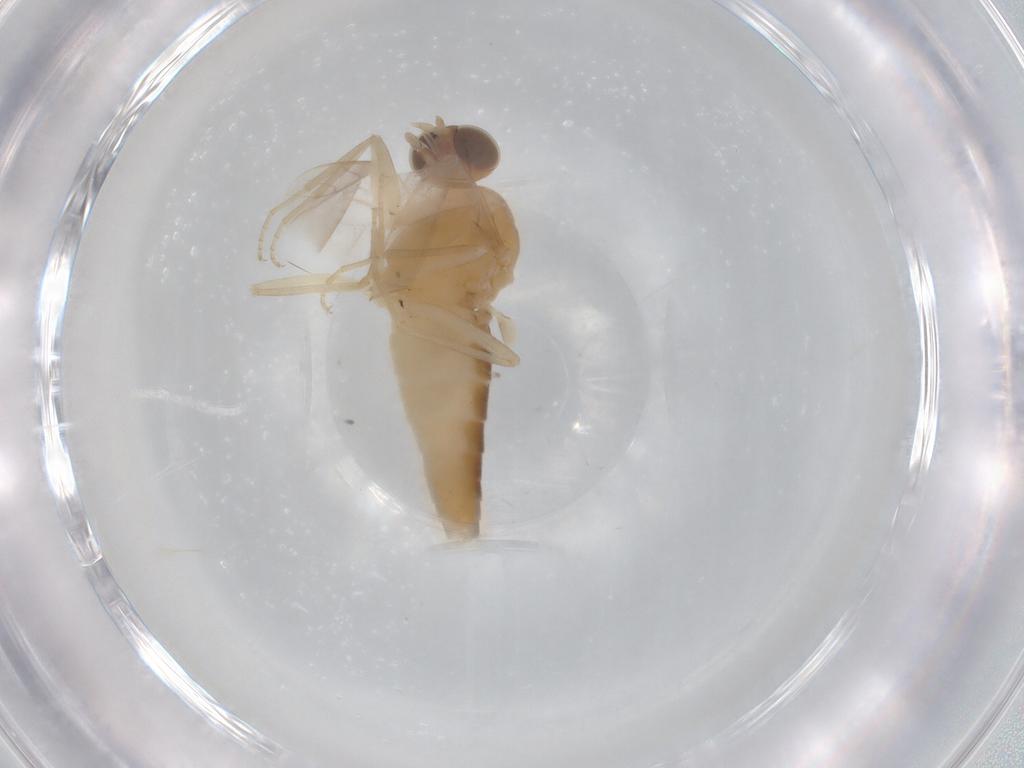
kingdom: Animalia
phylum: Arthropoda
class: Insecta
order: Diptera
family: Scenopinidae
